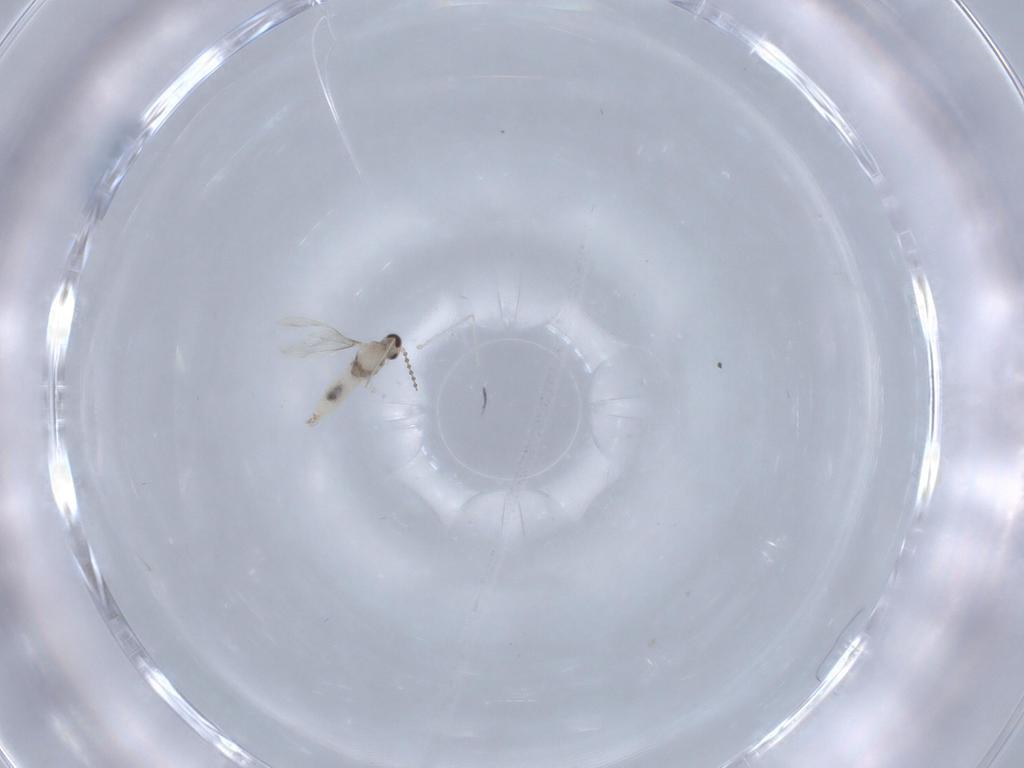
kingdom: Animalia
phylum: Arthropoda
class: Insecta
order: Diptera
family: Cecidomyiidae
